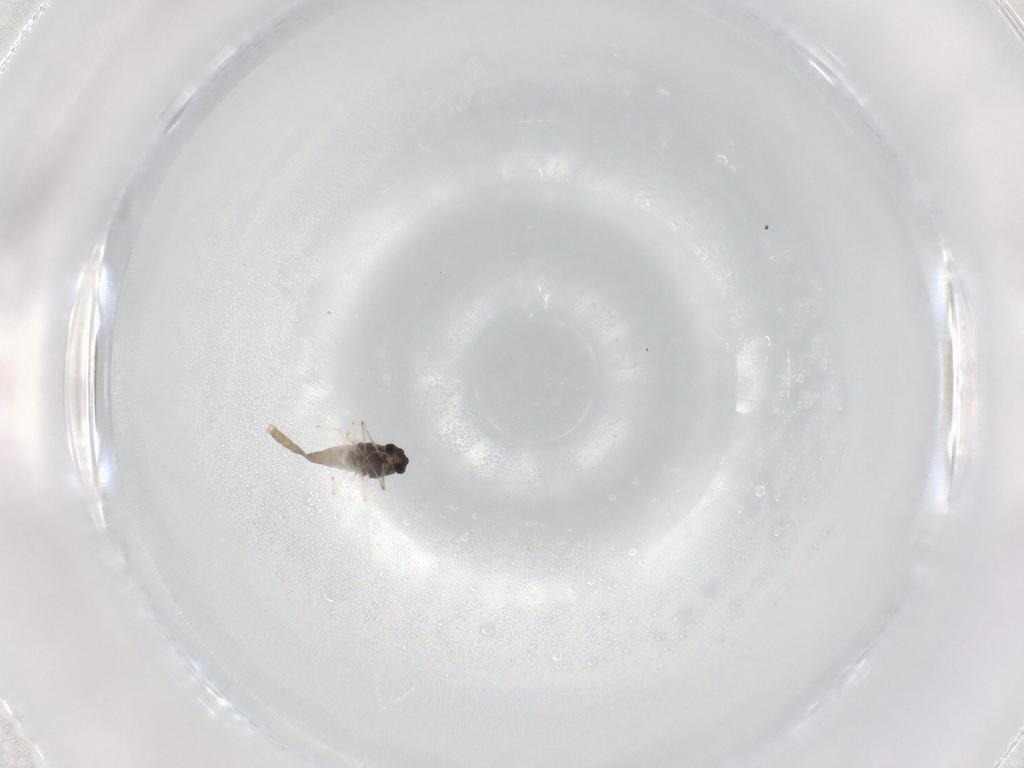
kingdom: Animalia
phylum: Arthropoda
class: Insecta
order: Diptera
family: Chironomidae
